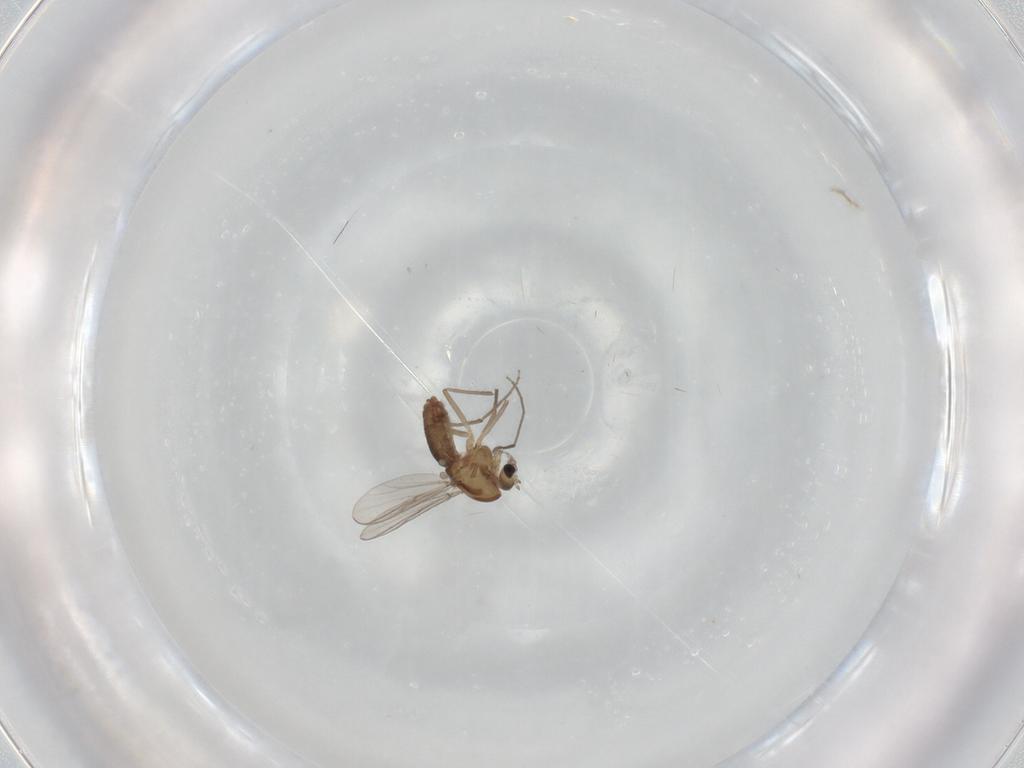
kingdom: Animalia
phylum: Arthropoda
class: Insecta
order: Diptera
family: Chironomidae
